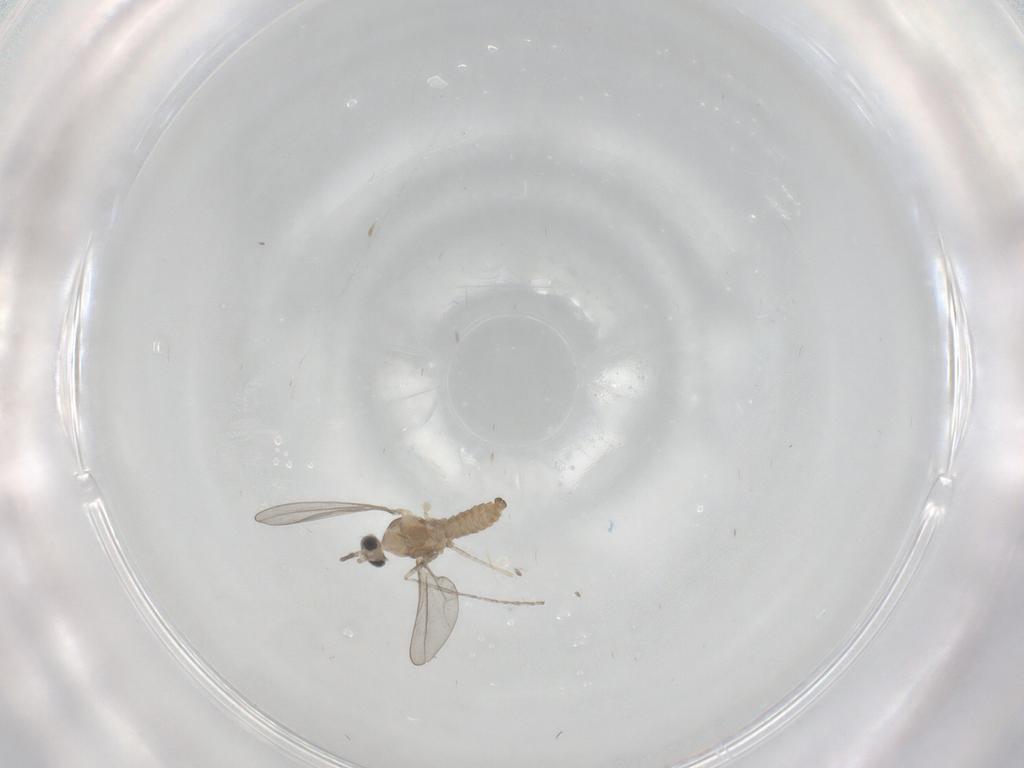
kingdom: Animalia
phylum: Arthropoda
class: Insecta
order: Diptera
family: Cecidomyiidae
